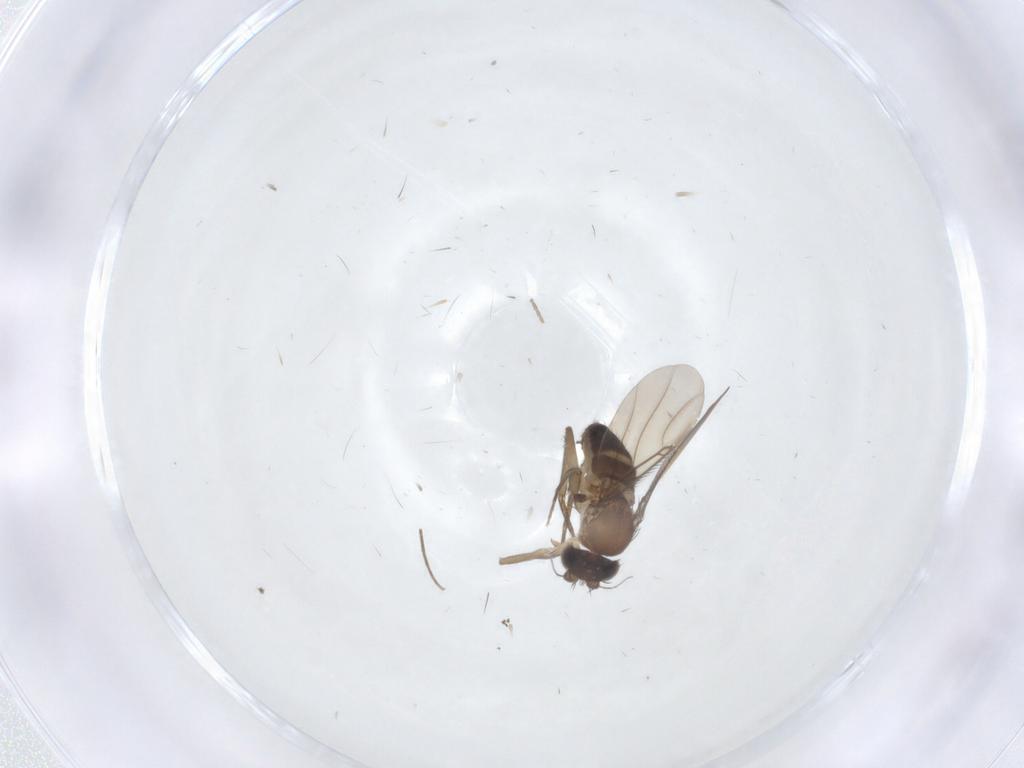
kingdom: Animalia
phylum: Arthropoda
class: Insecta
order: Diptera
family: Phoridae
